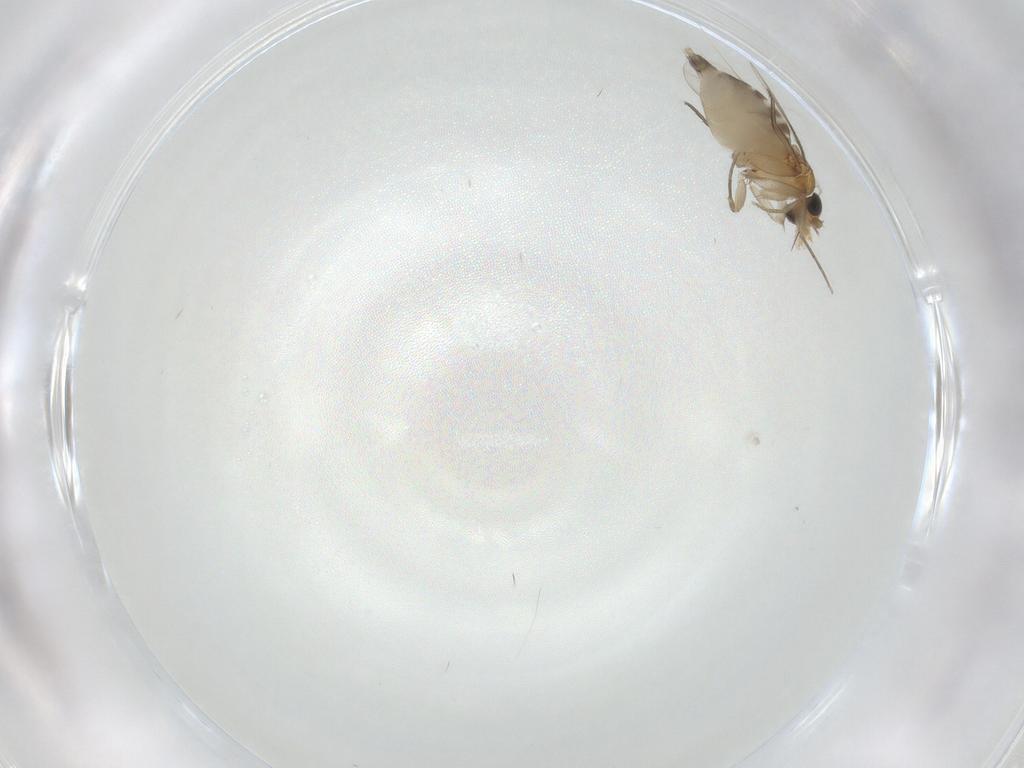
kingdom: Animalia
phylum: Arthropoda
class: Insecta
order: Diptera
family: Phoridae
